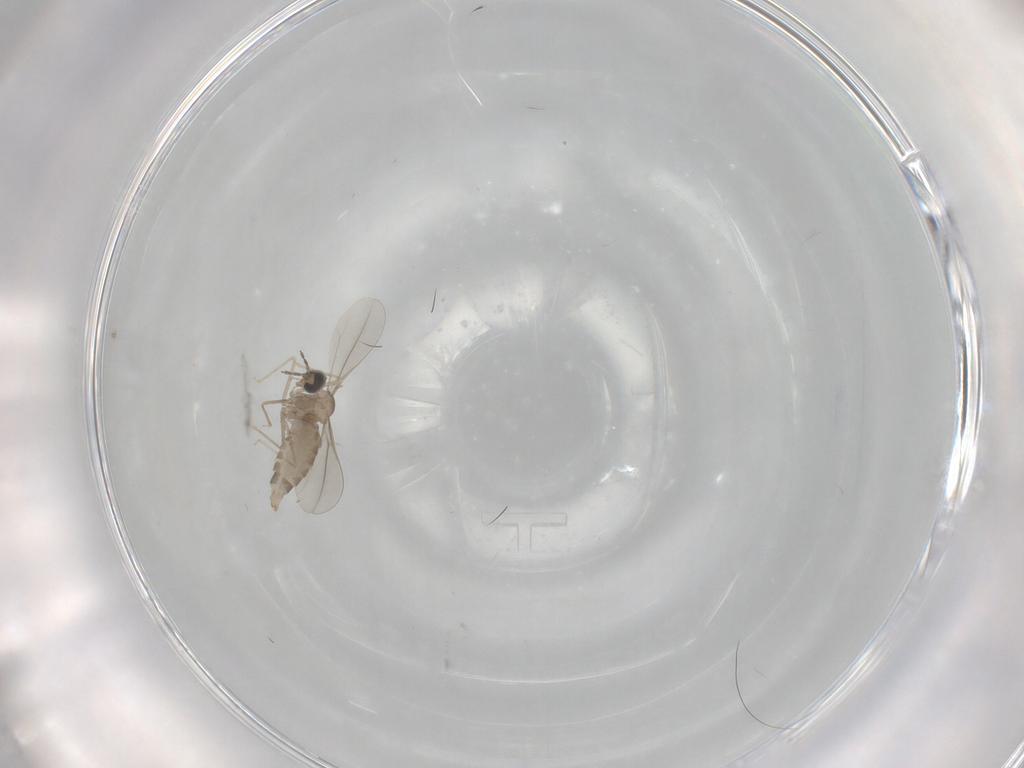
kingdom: Animalia
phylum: Arthropoda
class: Insecta
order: Diptera
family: Cecidomyiidae
